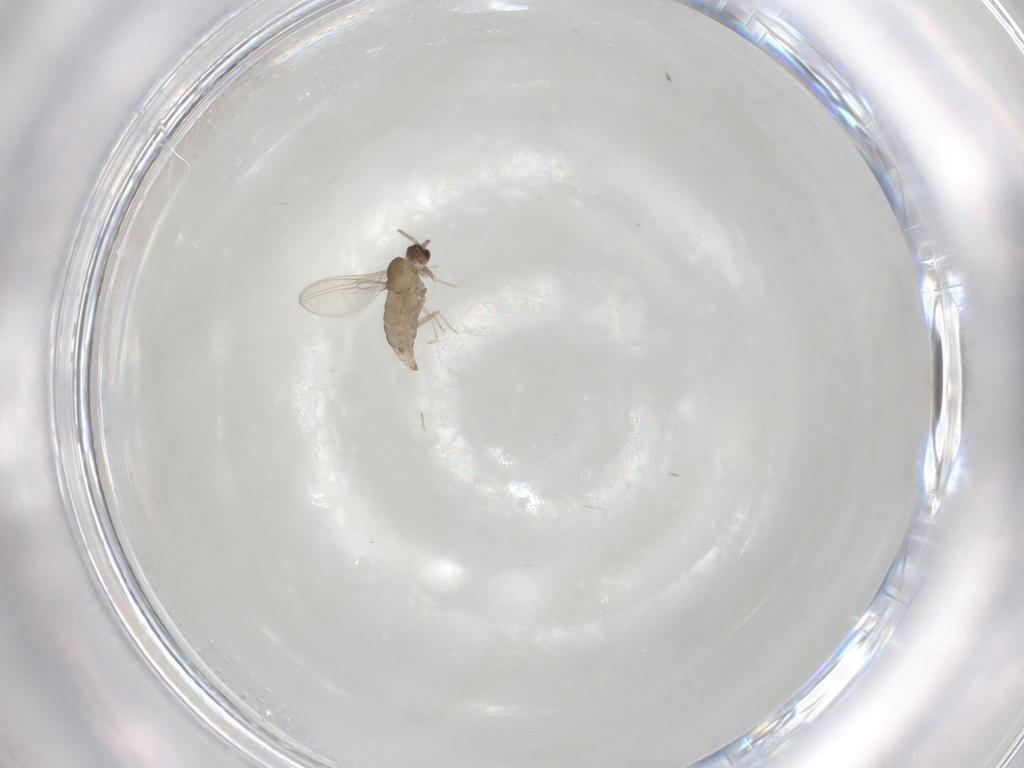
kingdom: Animalia
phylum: Arthropoda
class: Insecta
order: Diptera
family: Cecidomyiidae
